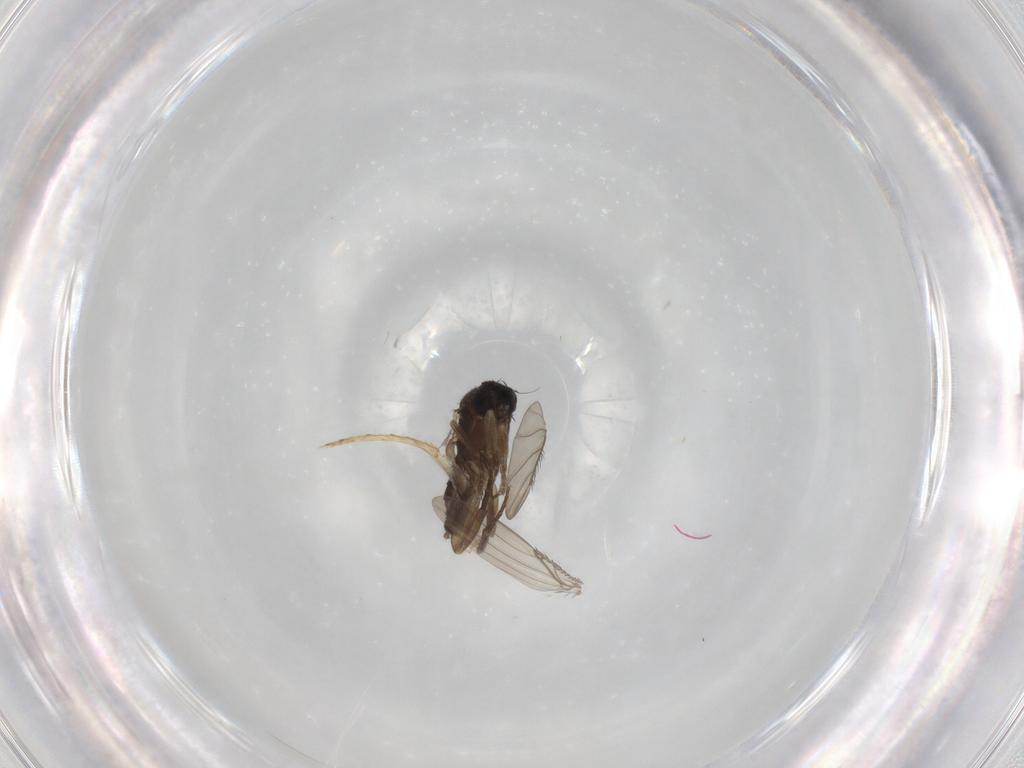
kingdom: Animalia
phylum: Arthropoda
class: Insecta
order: Diptera
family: Phoridae
